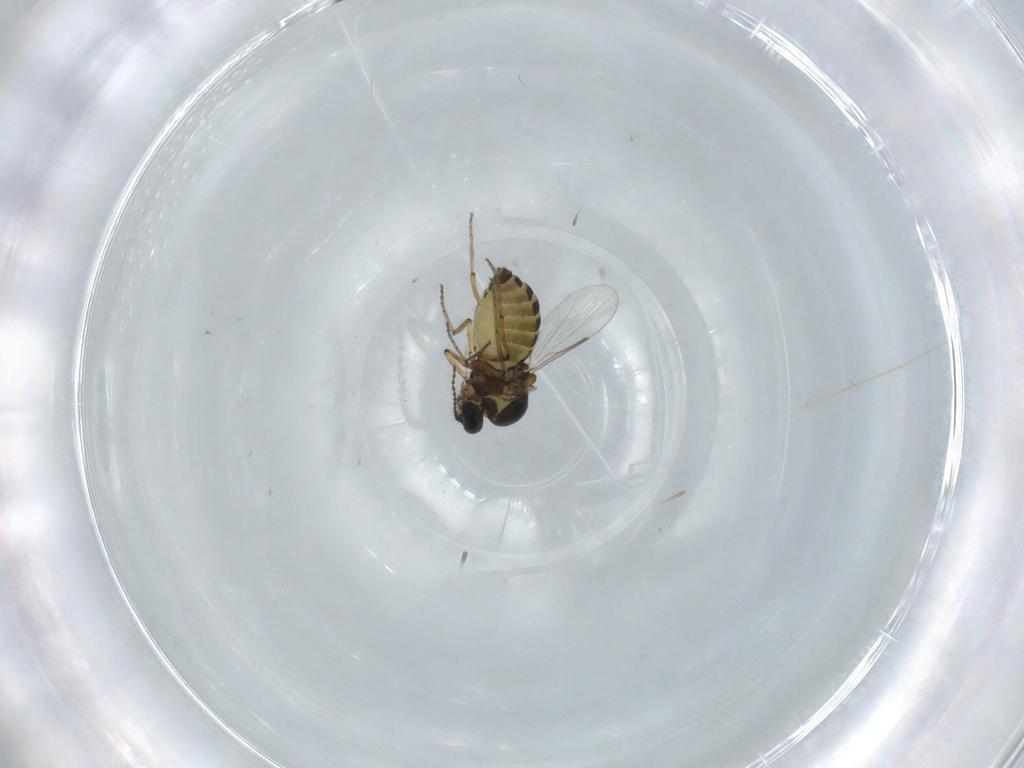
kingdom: Animalia
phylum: Arthropoda
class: Insecta
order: Diptera
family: Ceratopogonidae
